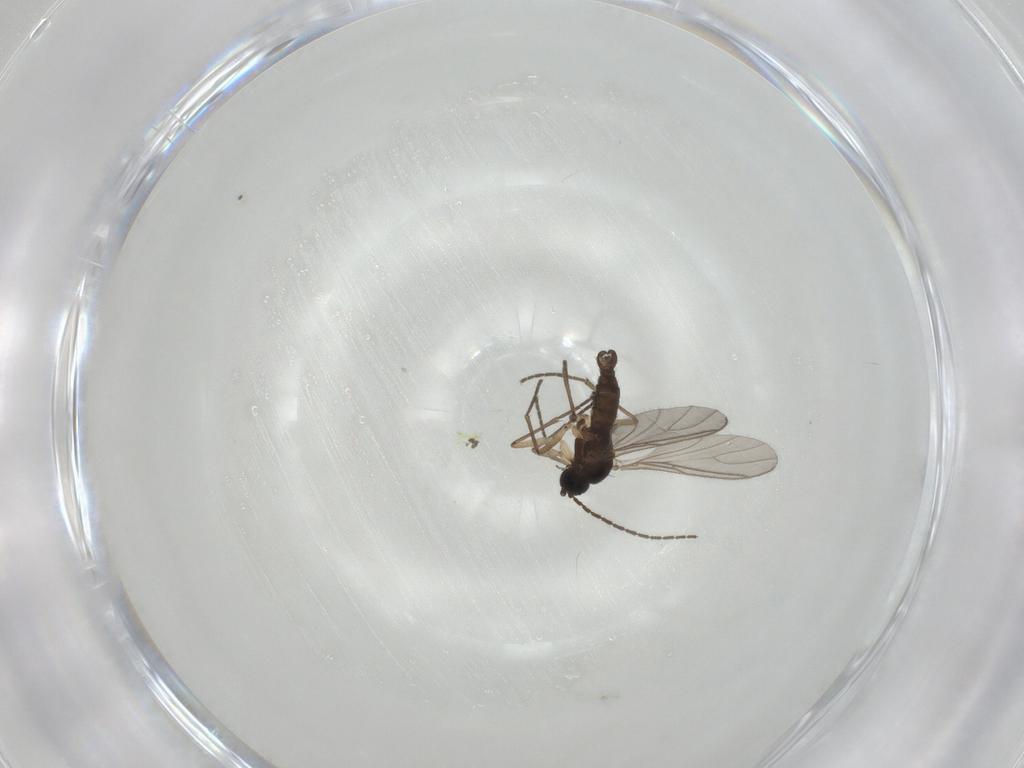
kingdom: Animalia
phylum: Arthropoda
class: Insecta
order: Diptera
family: Sciaridae
